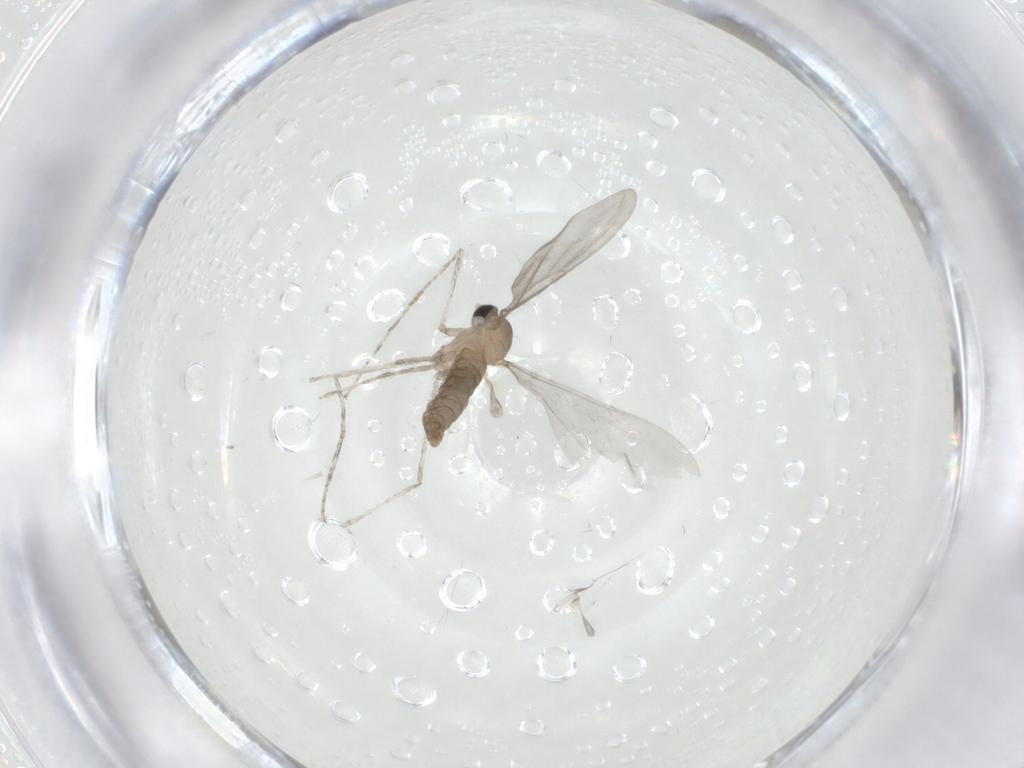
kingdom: Animalia
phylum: Arthropoda
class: Insecta
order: Diptera
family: Cecidomyiidae
